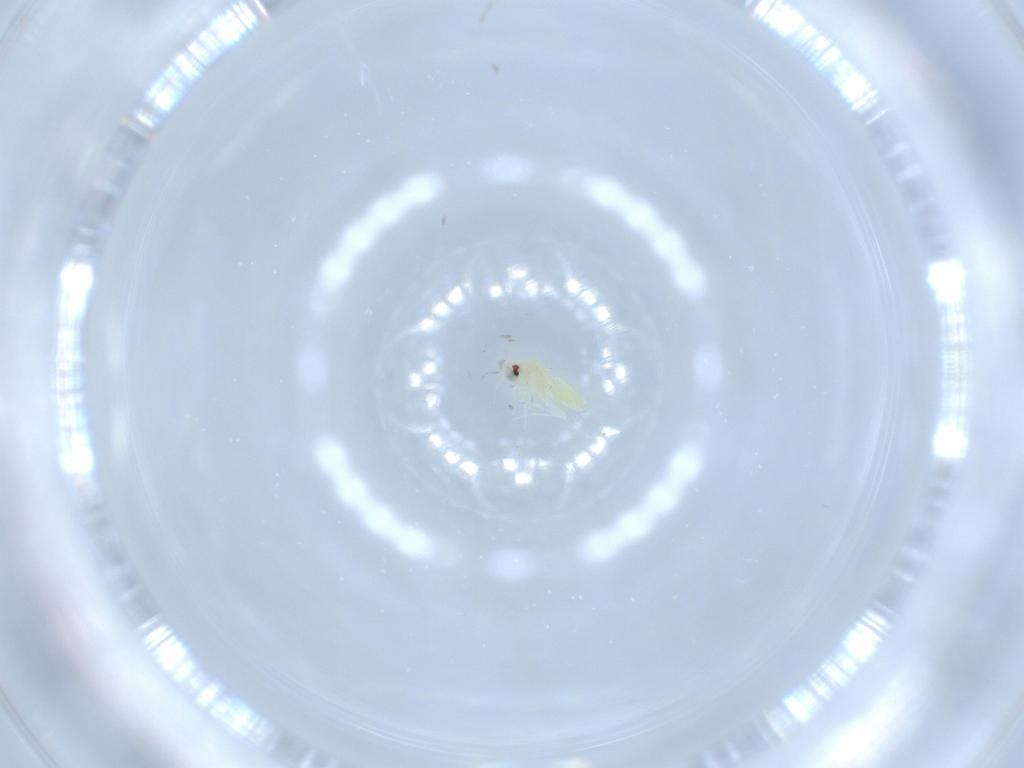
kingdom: Animalia
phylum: Arthropoda
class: Insecta
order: Hemiptera
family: Aleyrodidae
